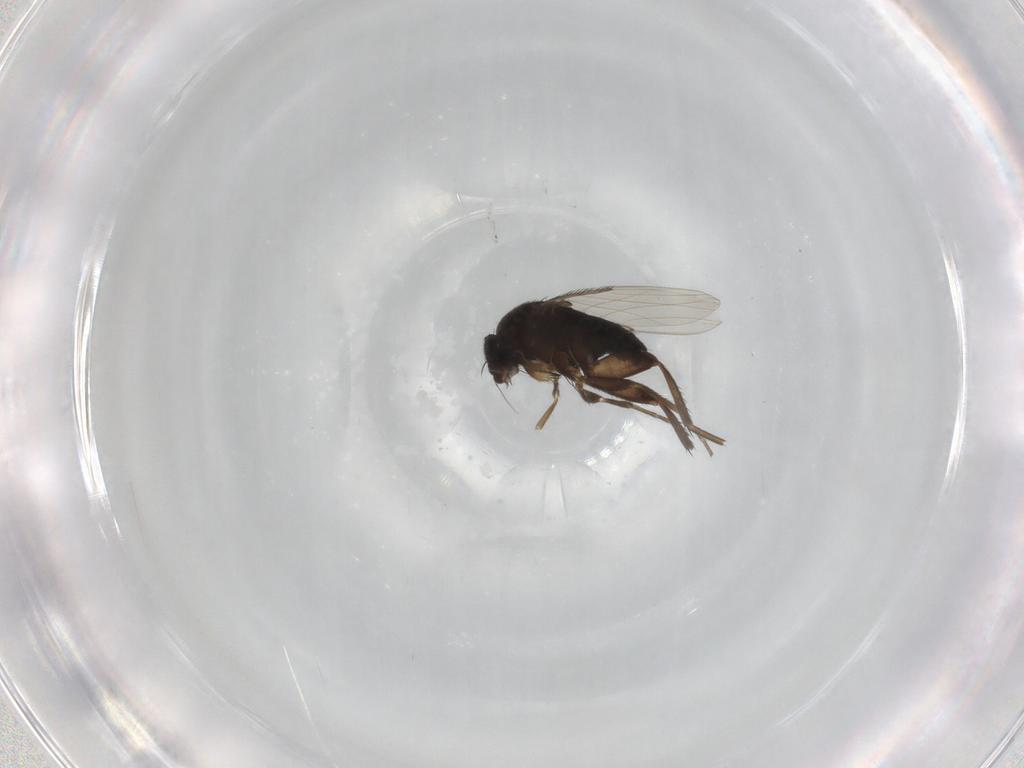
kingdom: Animalia
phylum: Arthropoda
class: Insecta
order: Diptera
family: Phoridae
